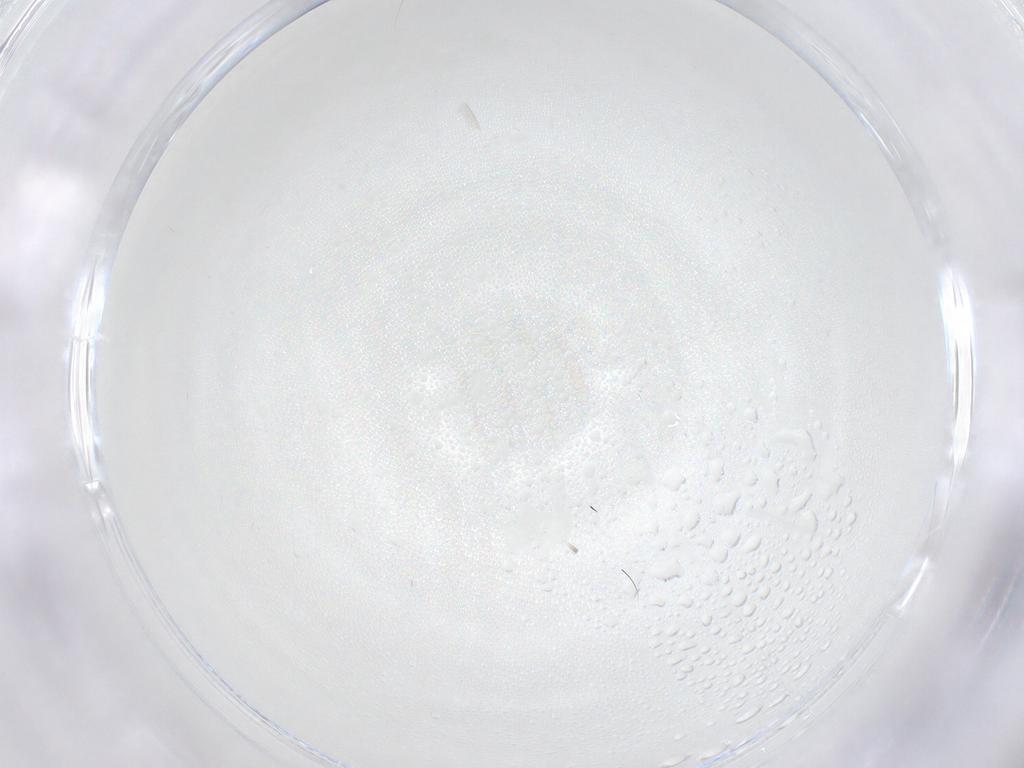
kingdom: Animalia
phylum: Arthropoda
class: Insecta
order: Hymenoptera
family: Mymaridae
